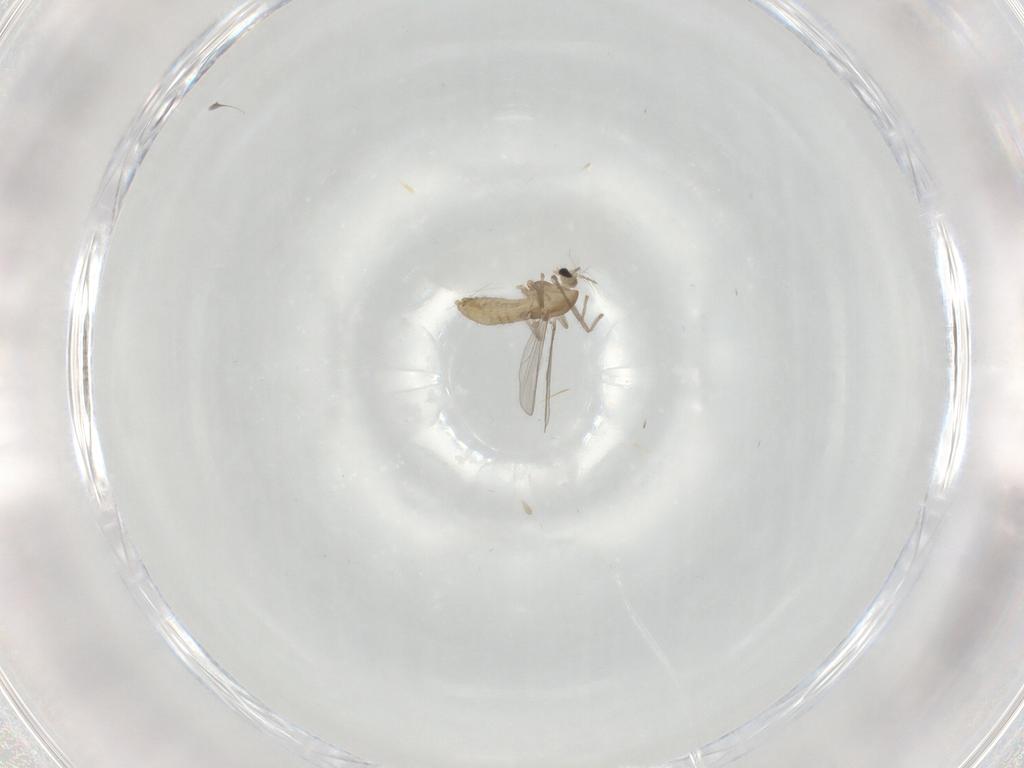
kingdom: Animalia
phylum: Arthropoda
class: Insecta
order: Diptera
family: Chironomidae
